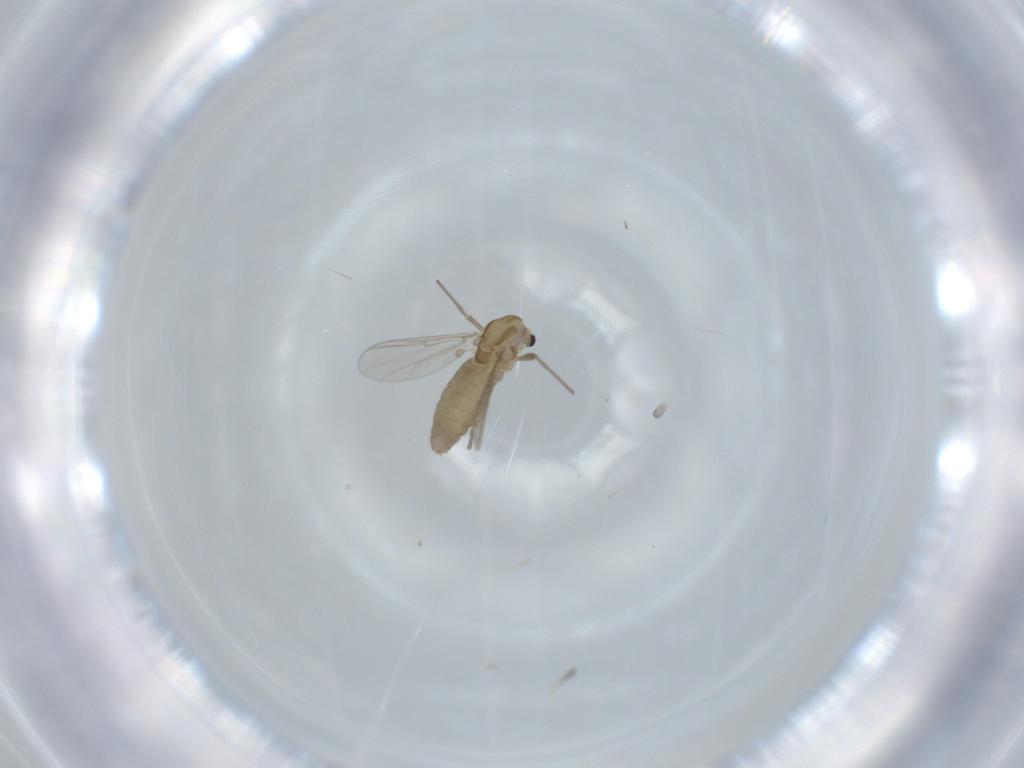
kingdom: Animalia
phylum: Arthropoda
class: Insecta
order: Diptera
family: Chironomidae
